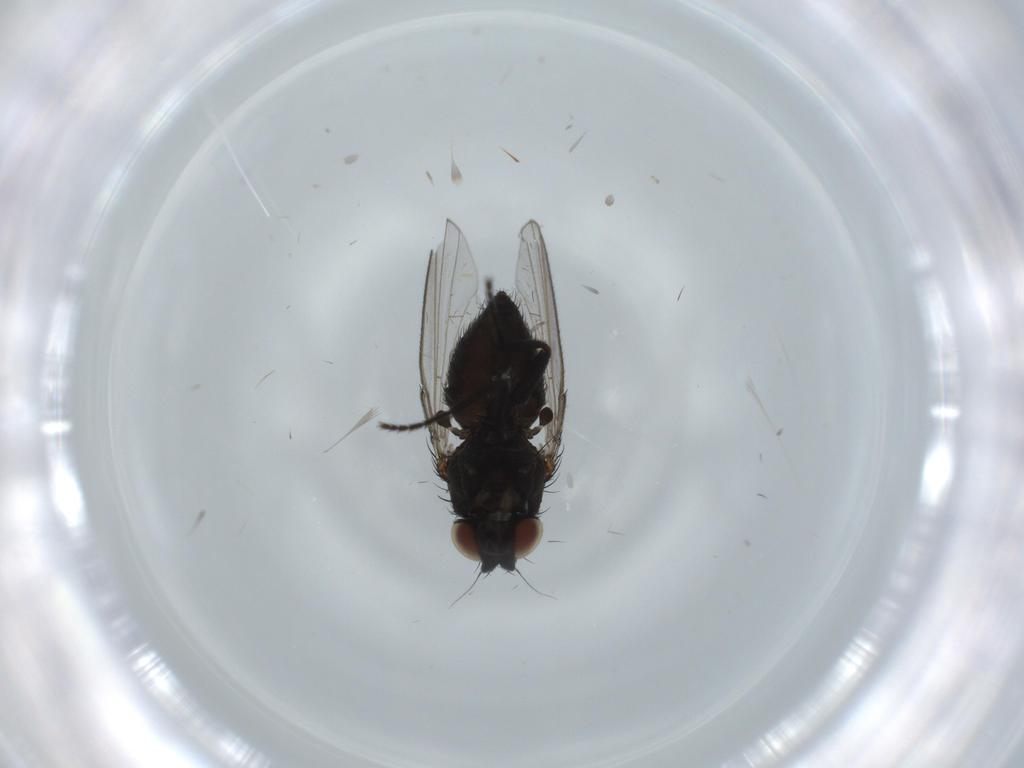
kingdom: Animalia
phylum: Arthropoda
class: Insecta
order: Diptera
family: Milichiidae
